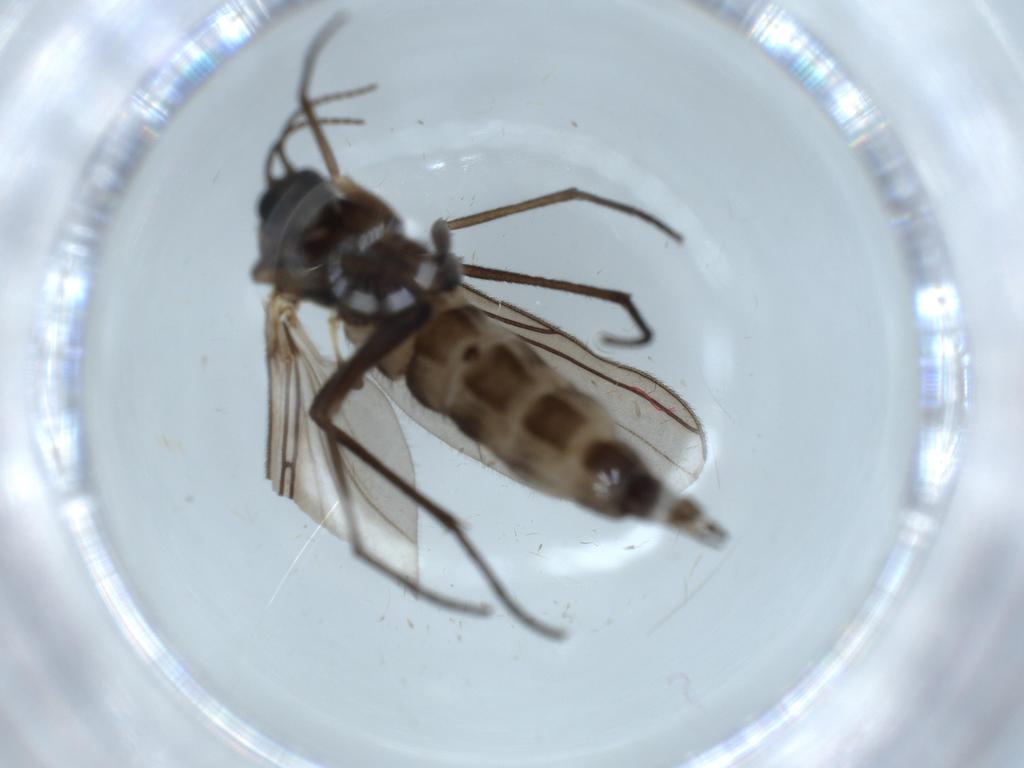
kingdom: Animalia
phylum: Arthropoda
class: Insecta
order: Diptera
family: Sciaridae
